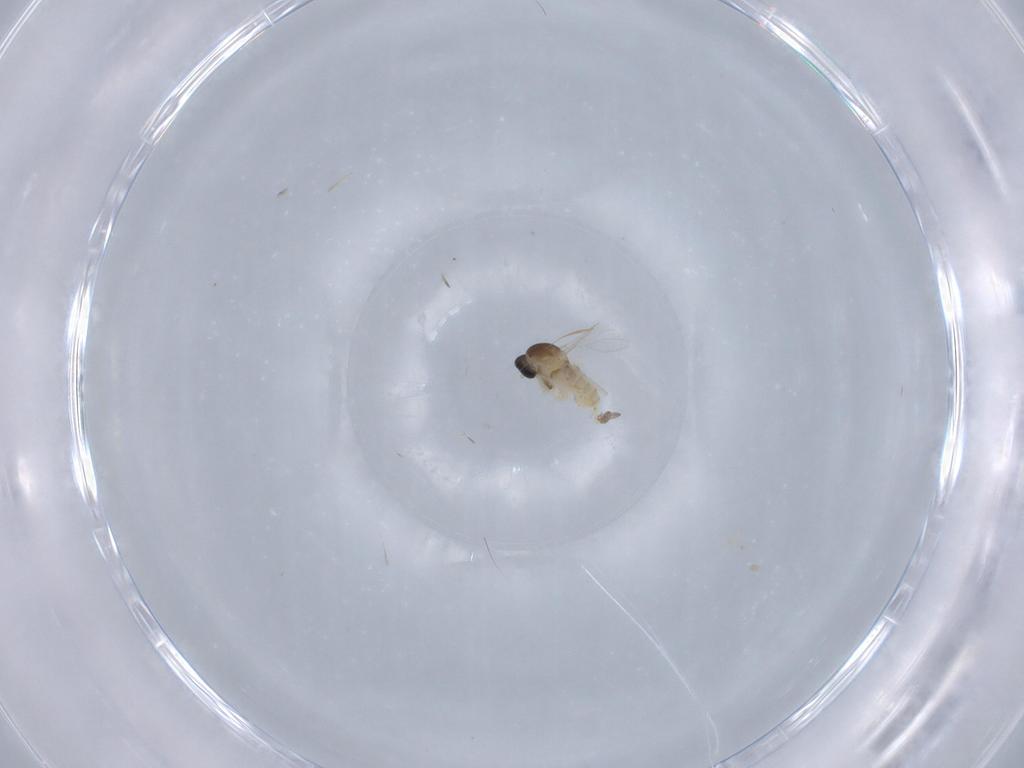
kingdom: Animalia
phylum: Arthropoda
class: Insecta
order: Diptera
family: Cecidomyiidae
